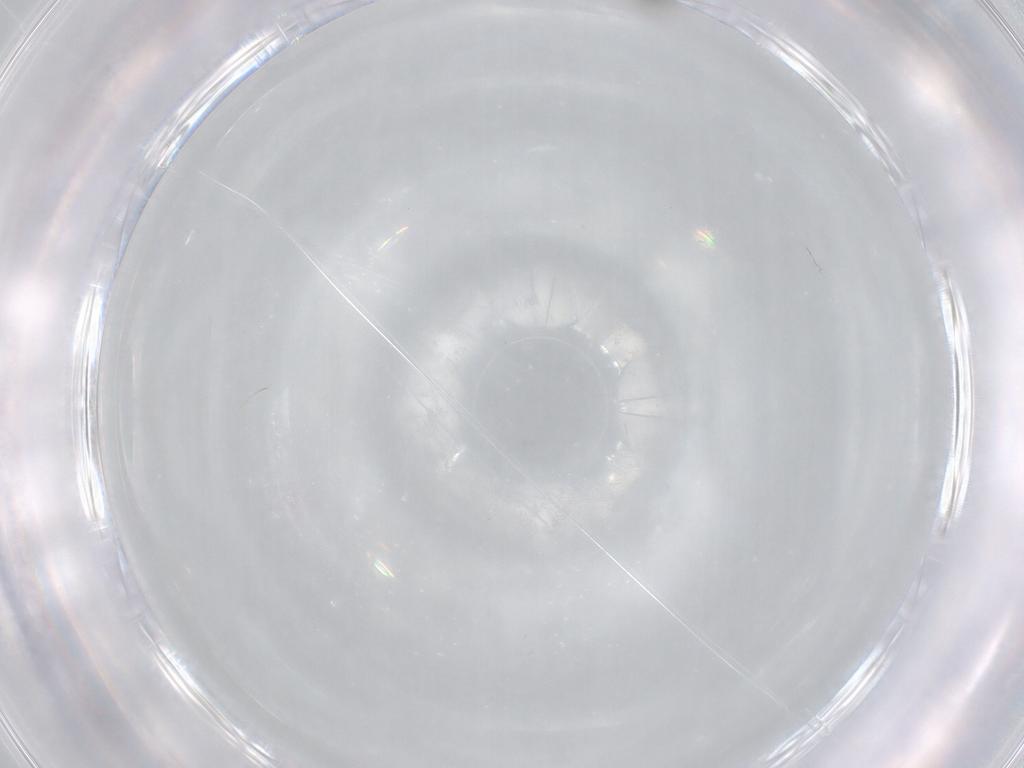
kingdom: Animalia
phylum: Arthropoda
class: Insecta
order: Hymenoptera
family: Scelionidae
